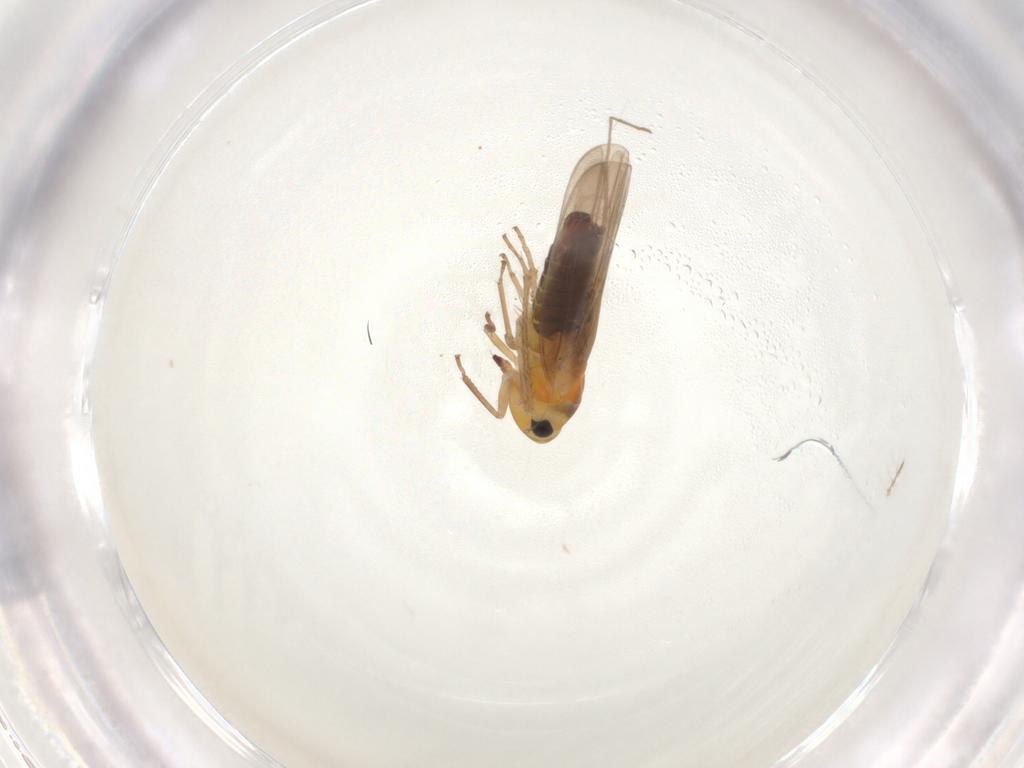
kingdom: Animalia
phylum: Arthropoda
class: Insecta
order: Hemiptera
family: Cicadellidae
